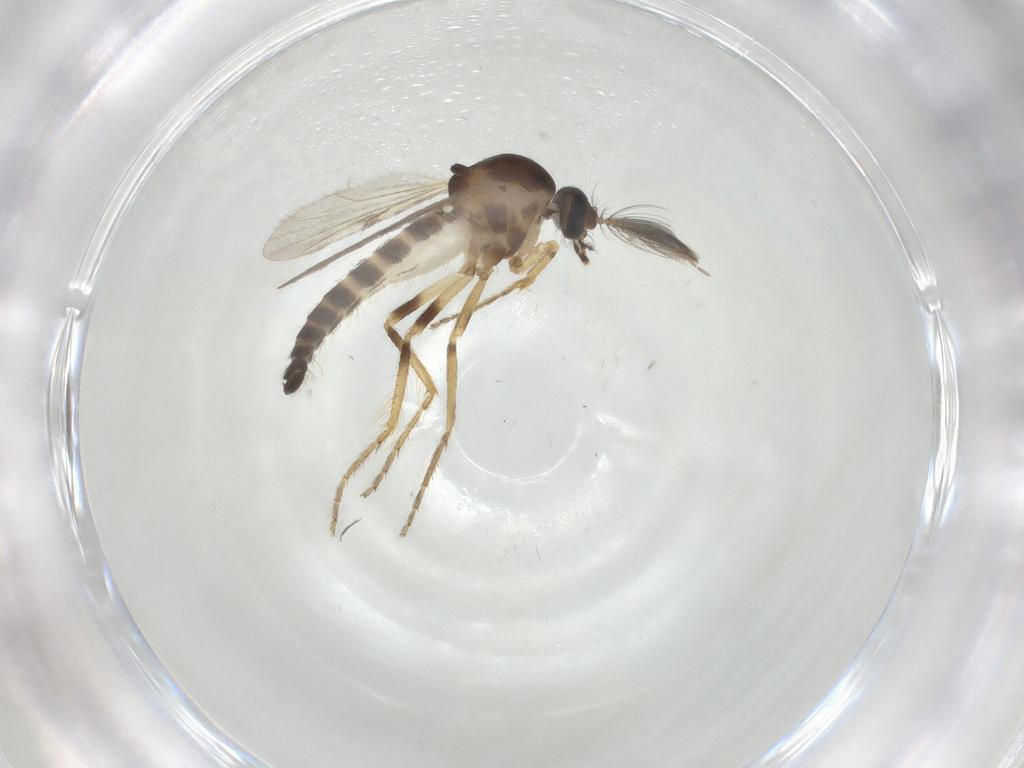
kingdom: Animalia
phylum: Arthropoda
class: Insecta
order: Diptera
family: Ceratopogonidae
